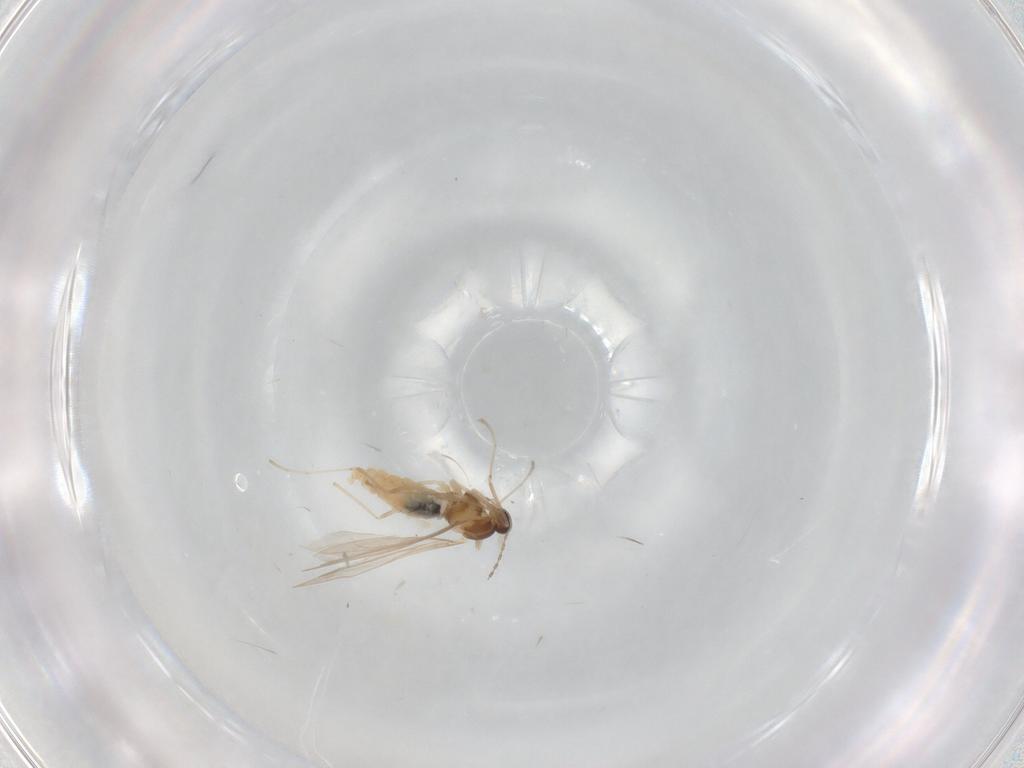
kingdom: Animalia
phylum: Arthropoda
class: Insecta
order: Diptera
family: Cecidomyiidae
